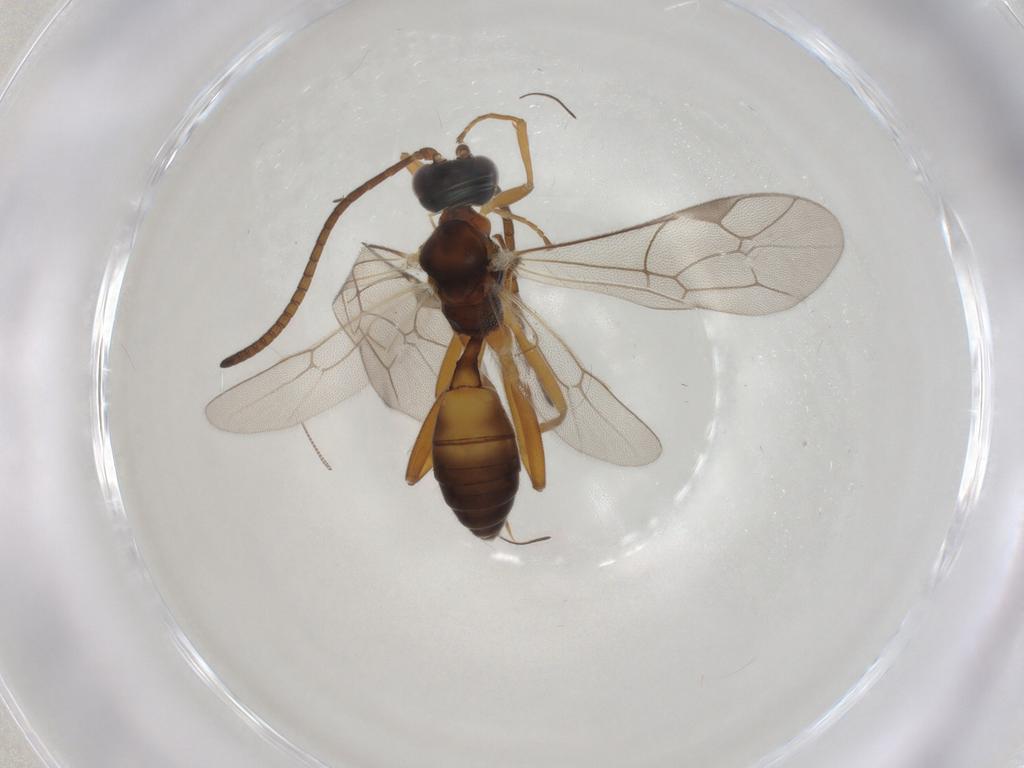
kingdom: Animalia
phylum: Arthropoda
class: Insecta
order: Hymenoptera
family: Ichneumonidae
